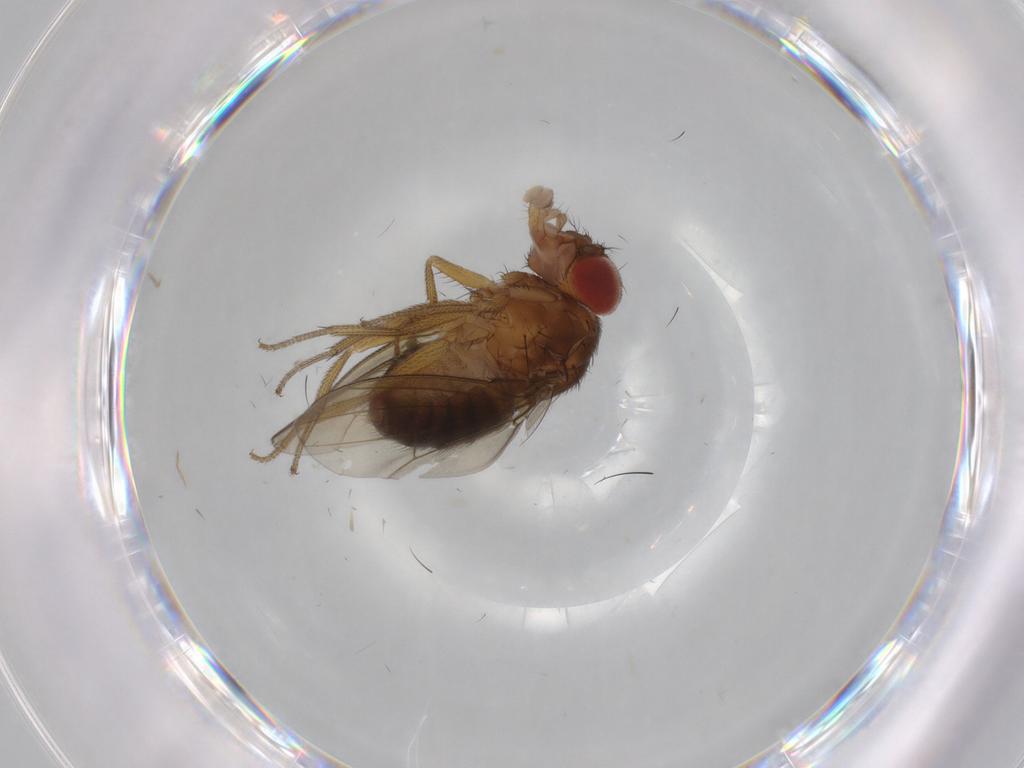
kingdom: Animalia
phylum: Arthropoda
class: Insecta
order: Diptera
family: Drosophilidae
